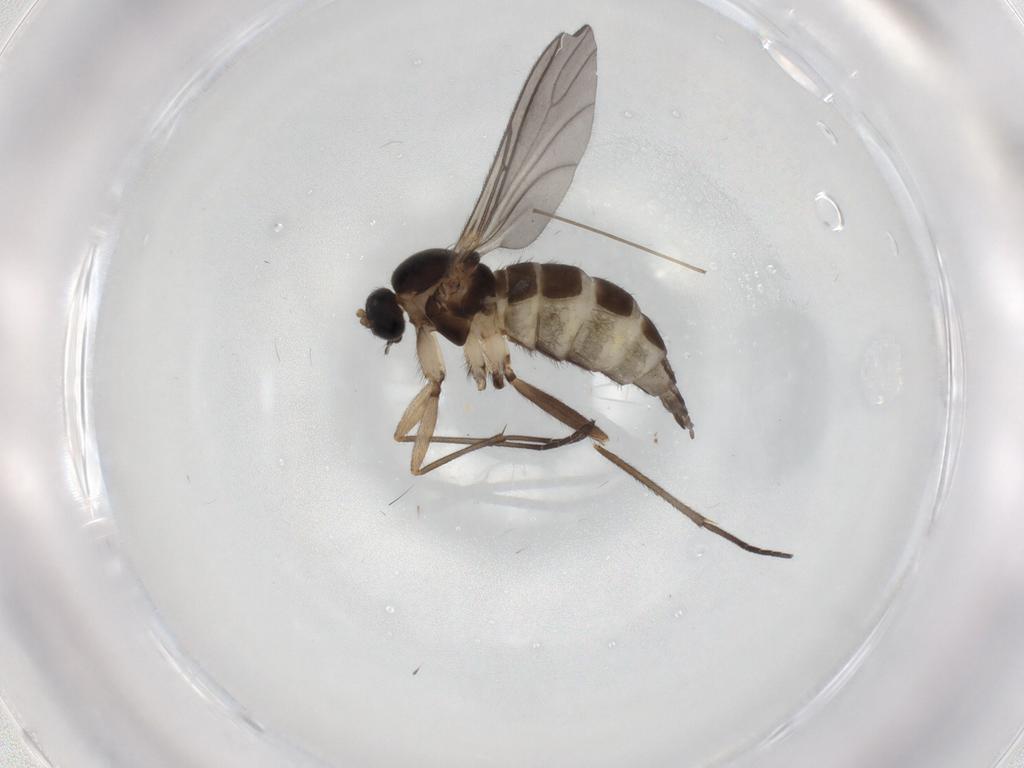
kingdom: Animalia
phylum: Arthropoda
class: Insecta
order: Diptera
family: Sciaridae
